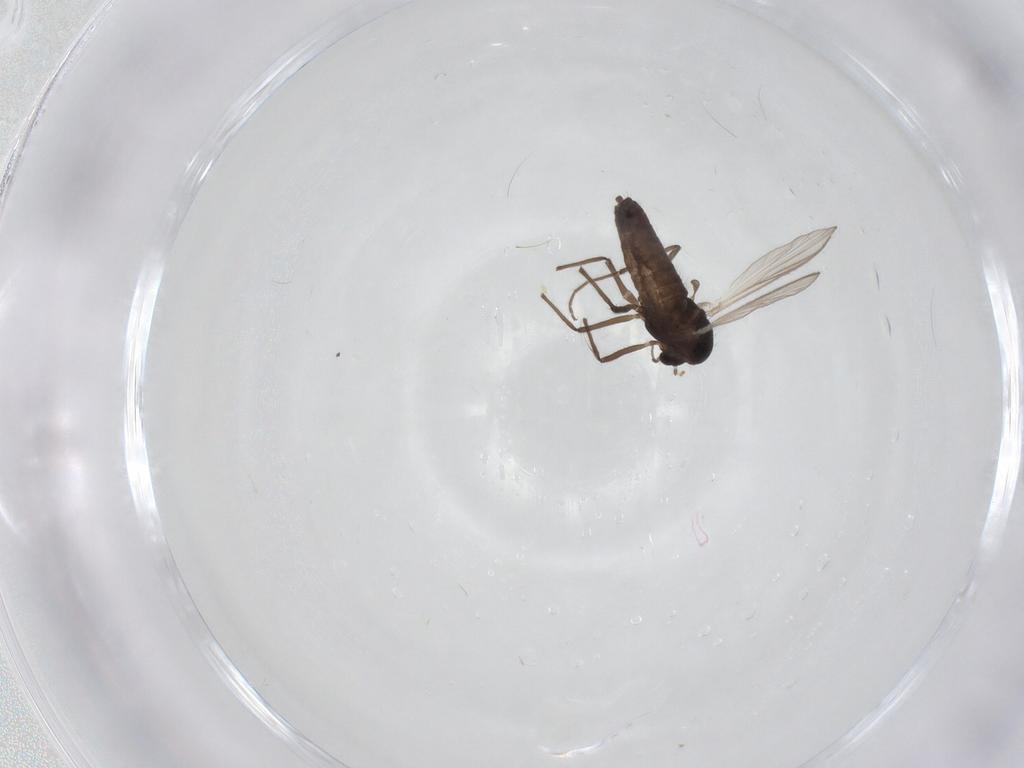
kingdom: Animalia
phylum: Arthropoda
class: Insecta
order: Diptera
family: Chironomidae
